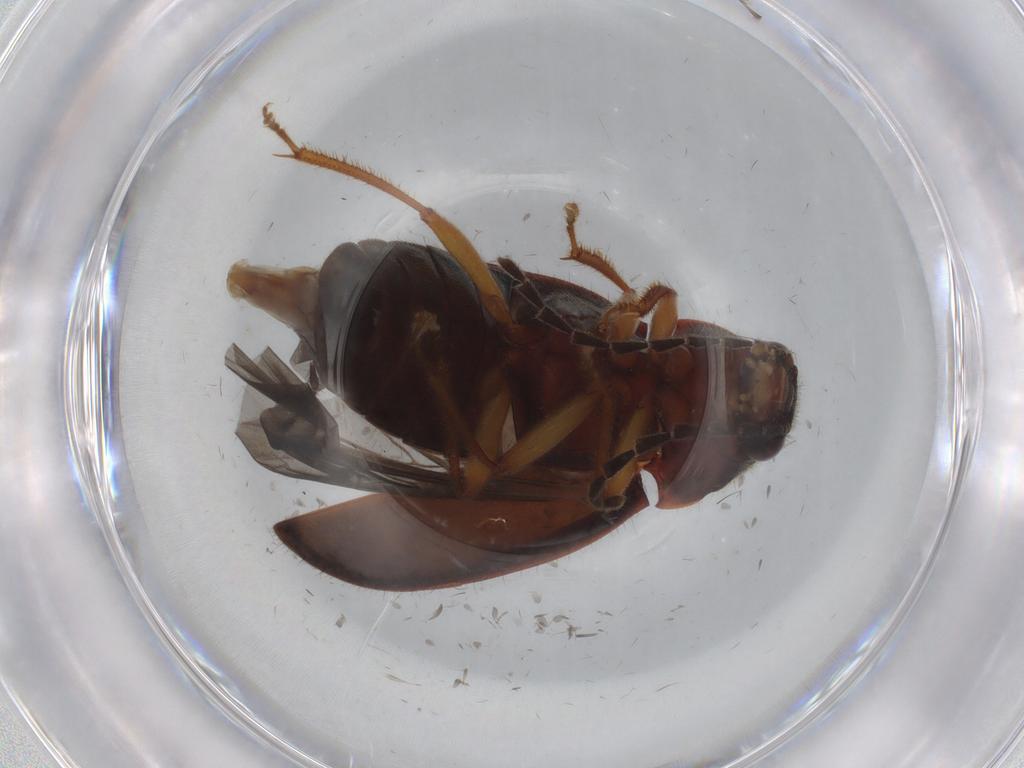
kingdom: Animalia
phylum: Arthropoda
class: Insecta
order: Coleoptera
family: Ptilodactylidae
